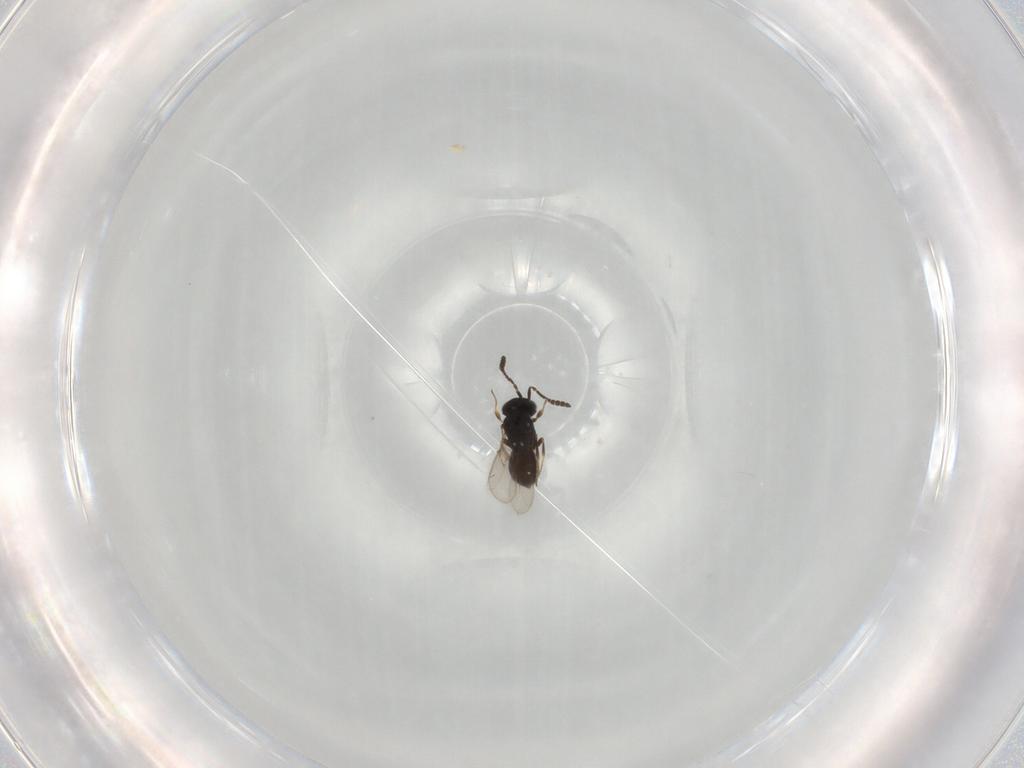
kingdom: Animalia
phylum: Arthropoda
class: Insecta
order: Hymenoptera
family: Scelionidae
